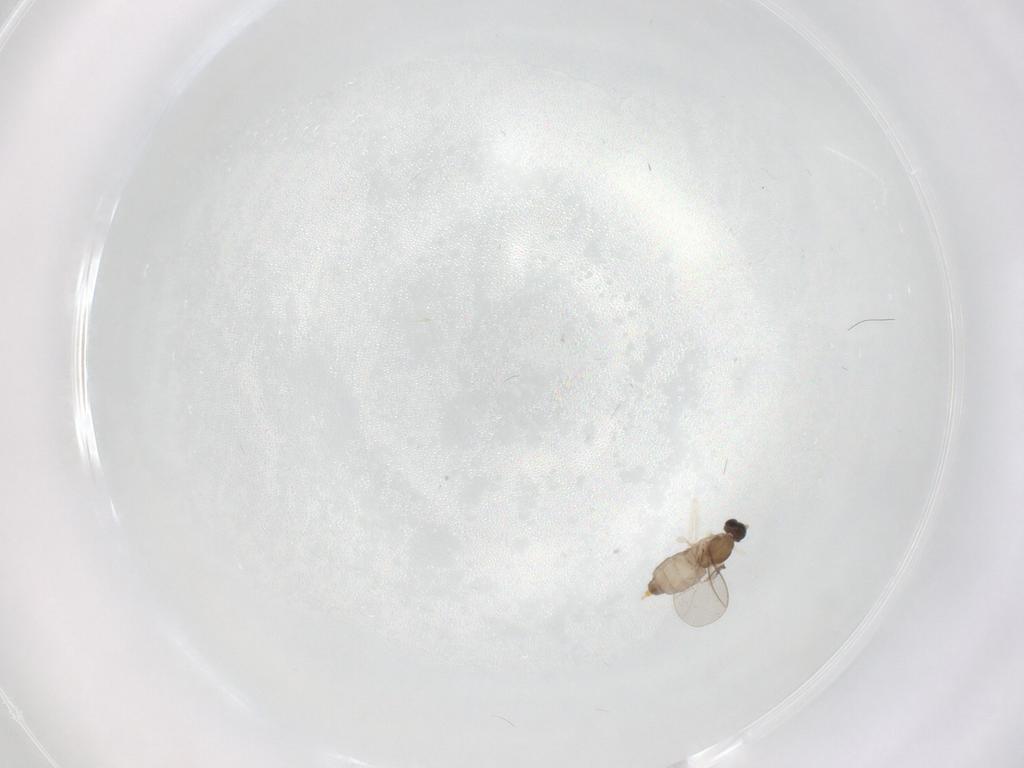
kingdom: Animalia
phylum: Arthropoda
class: Insecta
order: Diptera
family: Cecidomyiidae
